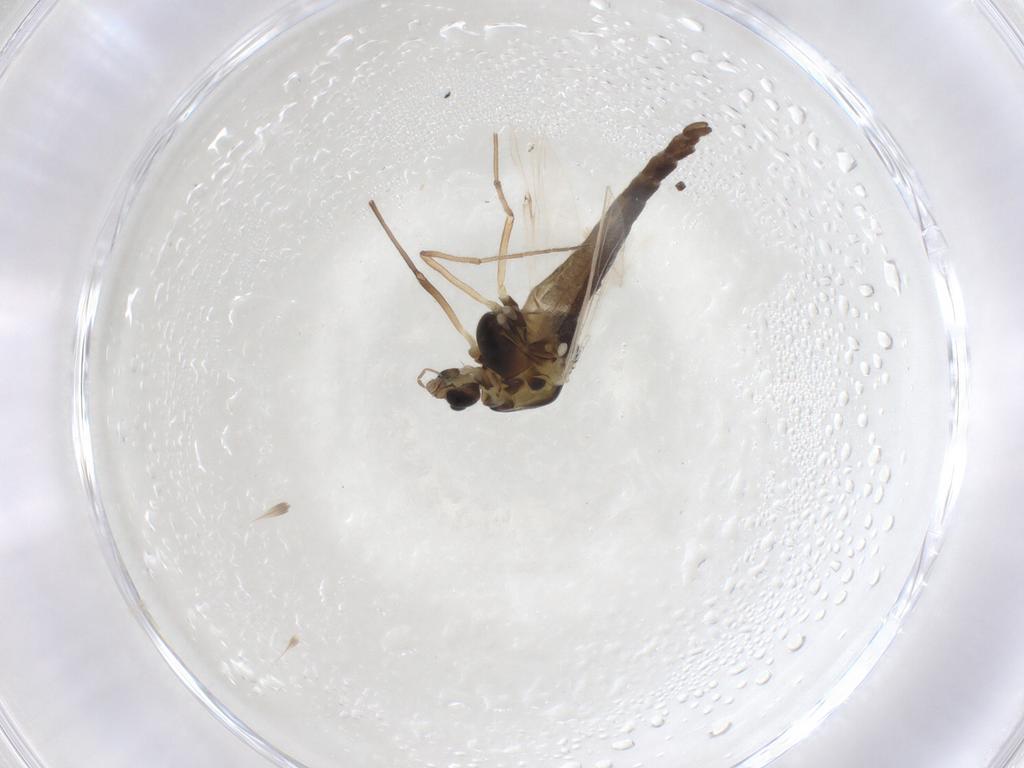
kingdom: Animalia
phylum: Arthropoda
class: Insecta
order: Diptera
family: Chironomidae
